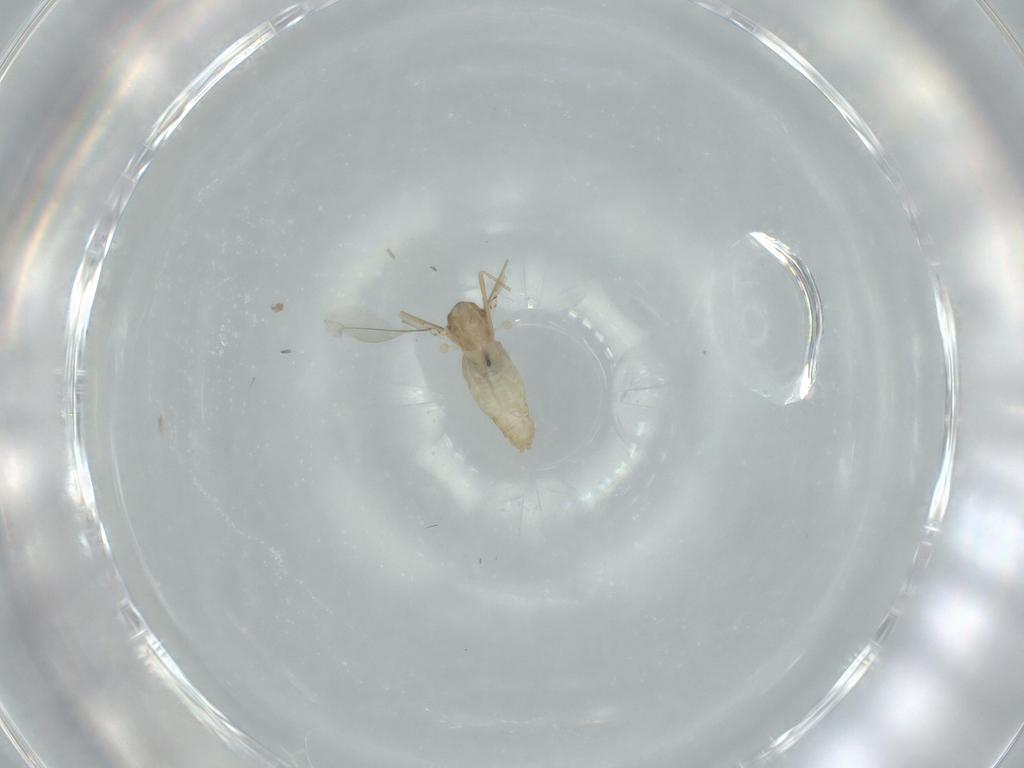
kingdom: Animalia
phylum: Arthropoda
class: Insecta
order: Diptera
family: Cecidomyiidae
